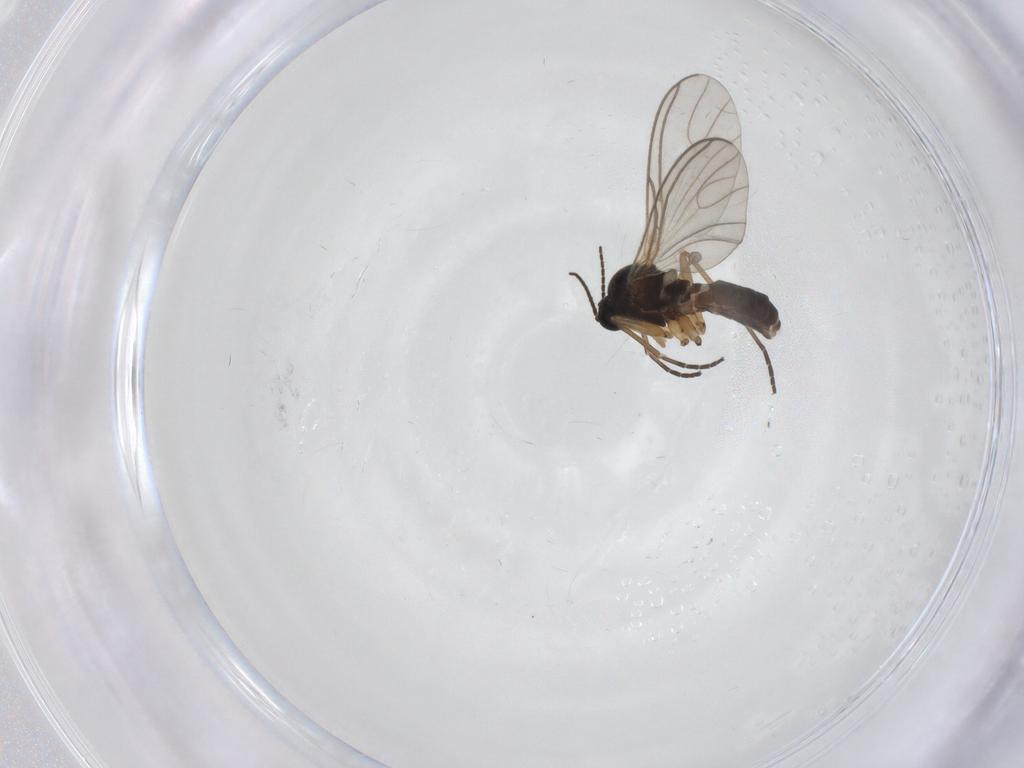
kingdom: Animalia
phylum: Arthropoda
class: Insecta
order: Diptera
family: Sciaridae
